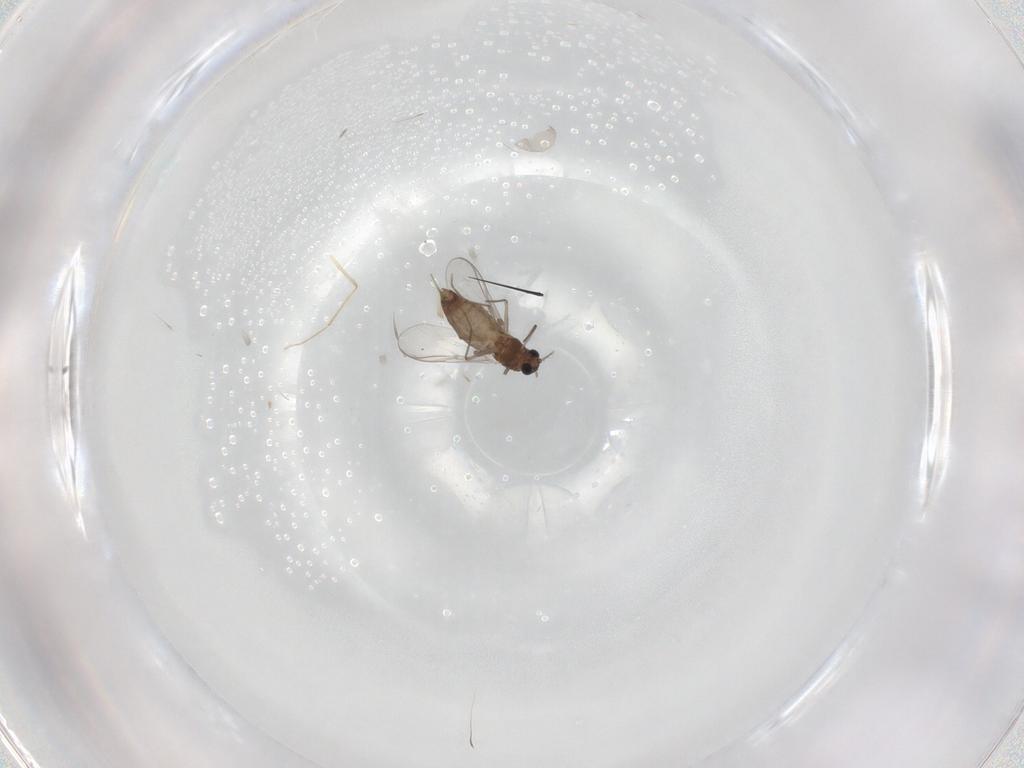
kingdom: Animalia
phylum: Arthropoda
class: Insecta
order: Diptera
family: Chironomidae
